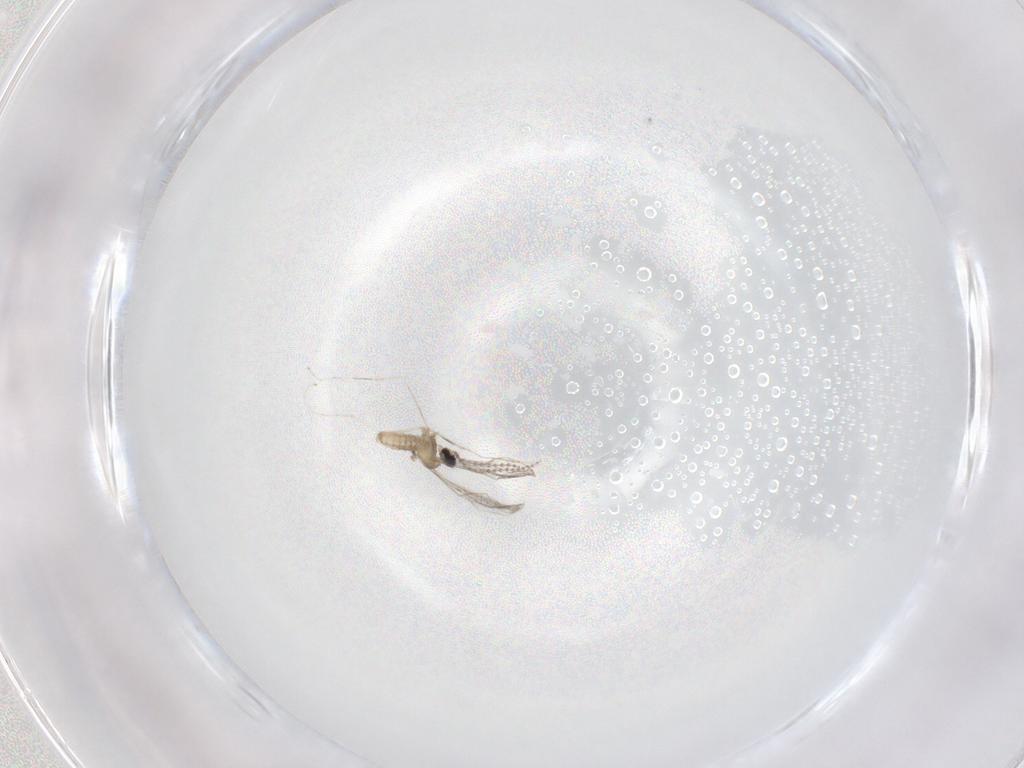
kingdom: Animalia
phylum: Arthropoda
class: Insecta
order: Diptera
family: Cecidomyiidae
